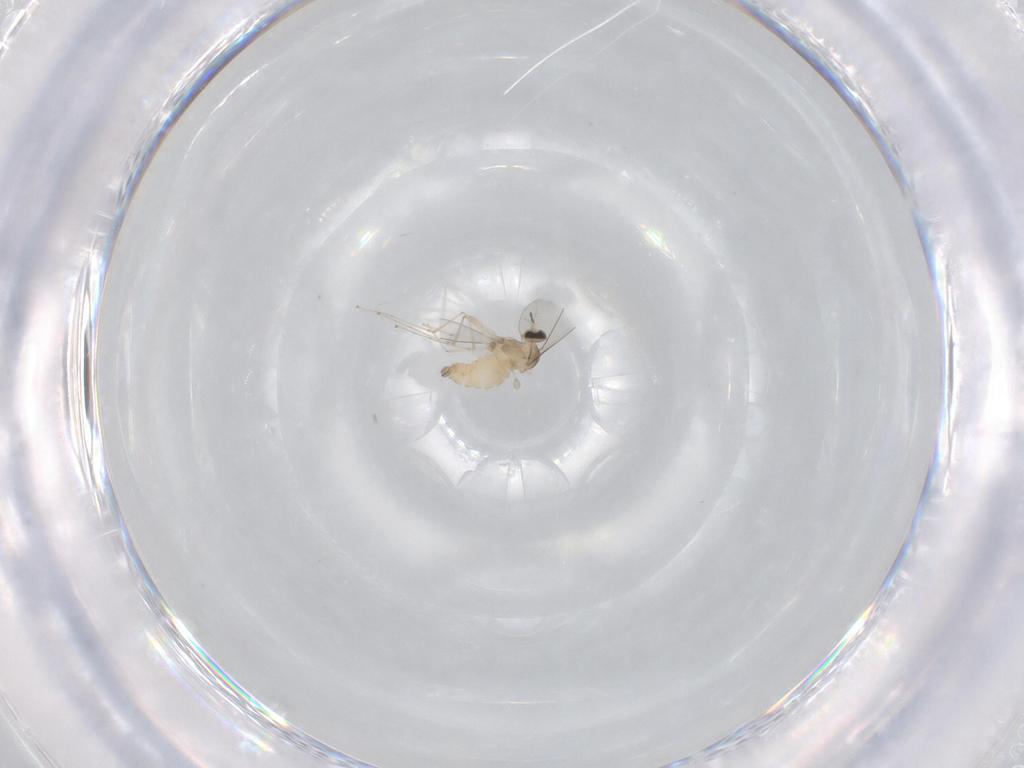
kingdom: Animalia
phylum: Arthropoda
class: Insecta
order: Diptera
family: Cecidomyiidae
